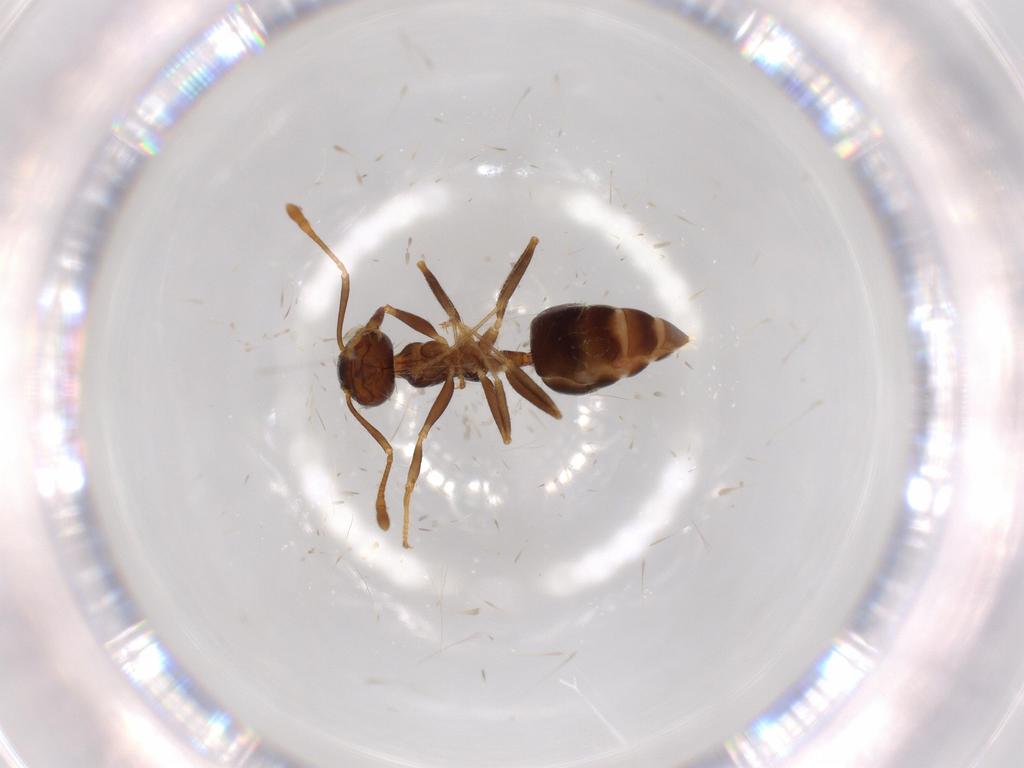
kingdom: Animalia
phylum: Arthropoda
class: Insecta
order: Hymenoptera
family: Formicidae
